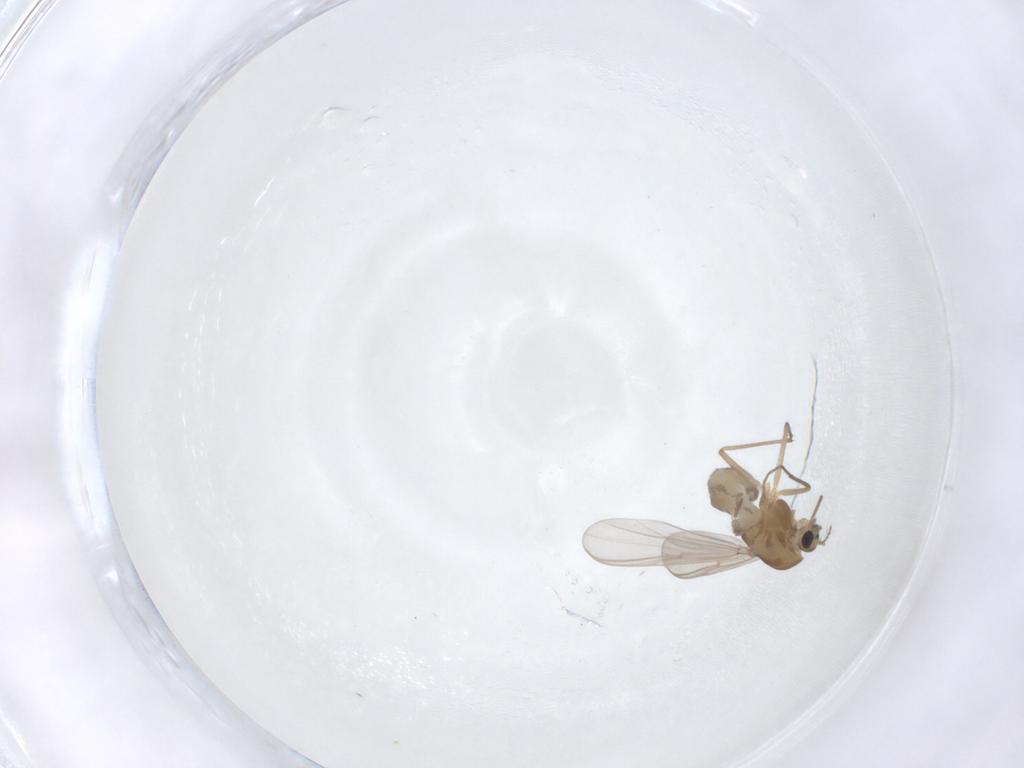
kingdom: Animalia
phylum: Arthropoda
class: Insecta
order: Diptera
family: Chironomidae
